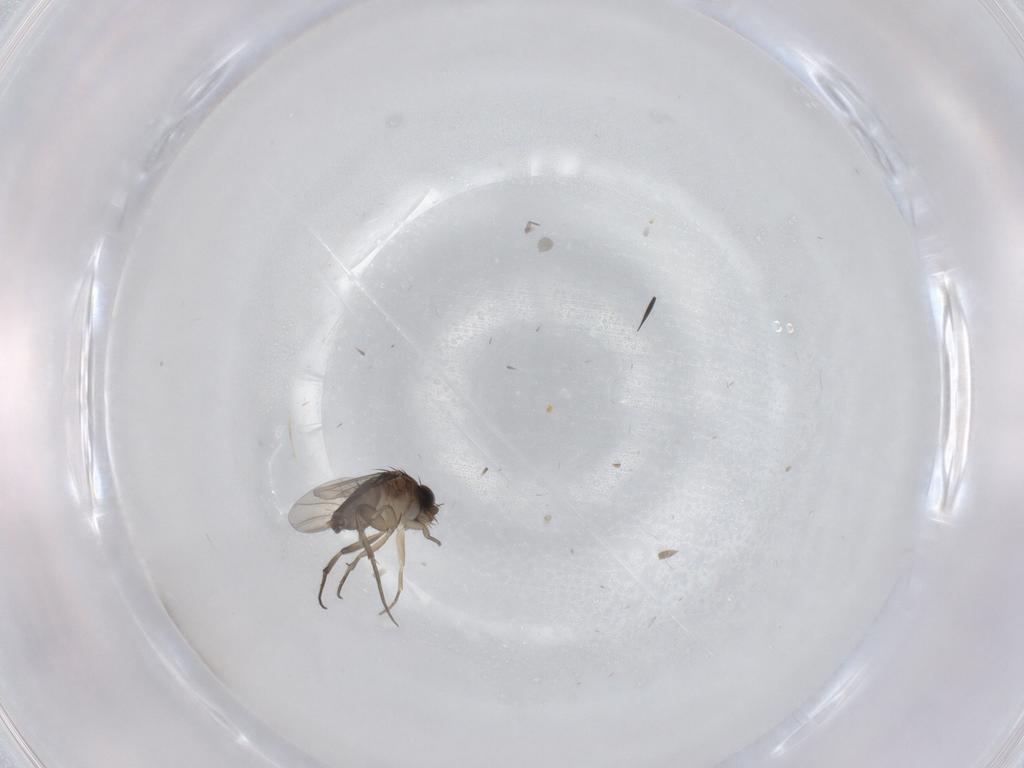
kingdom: Animalia
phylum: Arthropoda
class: Insecta
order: Diptera
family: Phoridae
